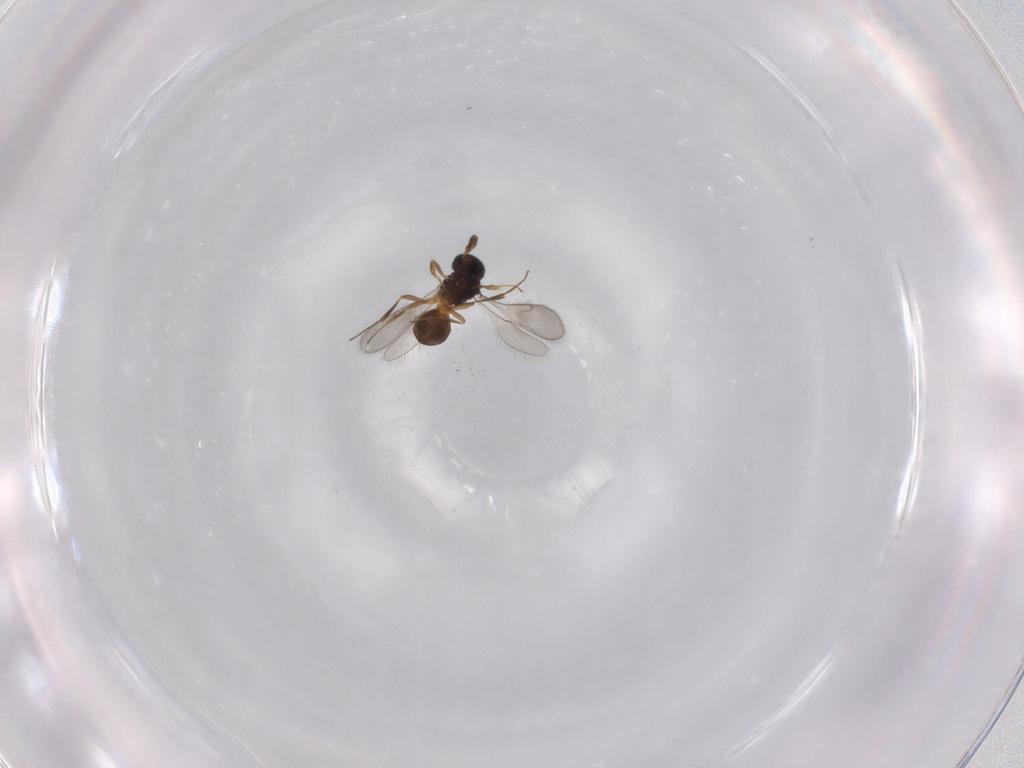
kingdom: Animalia
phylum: Arthropoda
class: Insecta
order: Hymenoptera
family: Scelionidae
